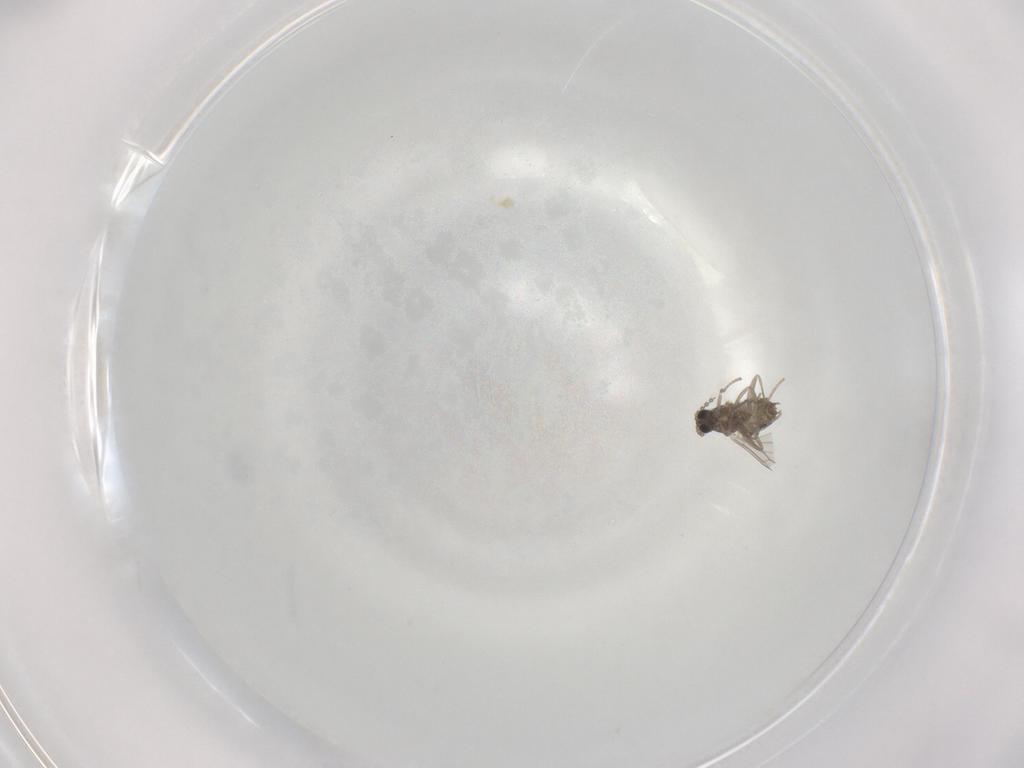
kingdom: Animalia
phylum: Arthropoda
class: Insecta
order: Diptera
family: Cecidomyiidae
